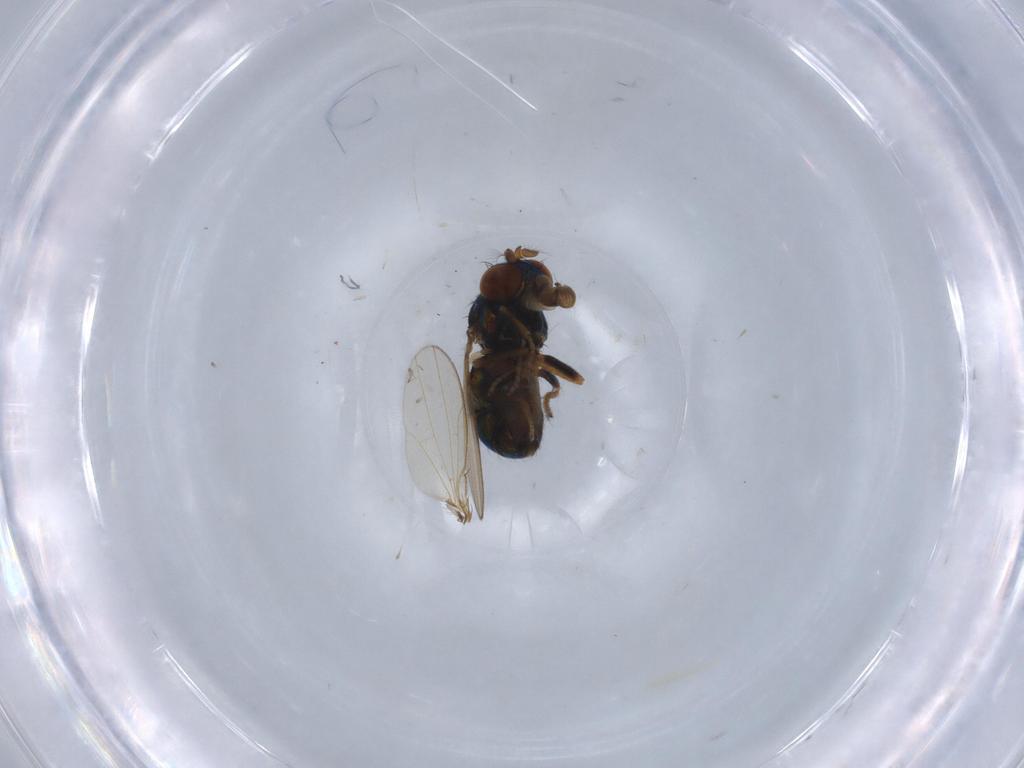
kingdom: Animalia
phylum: Arthropoda
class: Insecta
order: Diptera
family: Ephydridae
